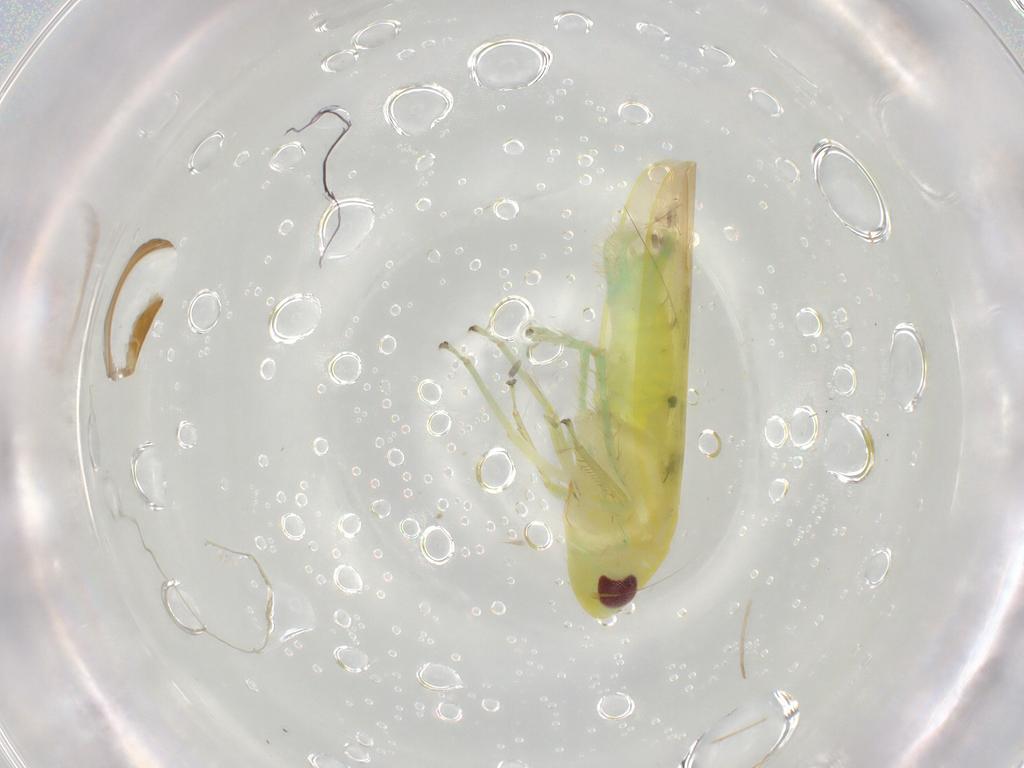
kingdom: Animalia
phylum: Arthropoda
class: Insecta
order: Hemiptera
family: Cicadellidae
